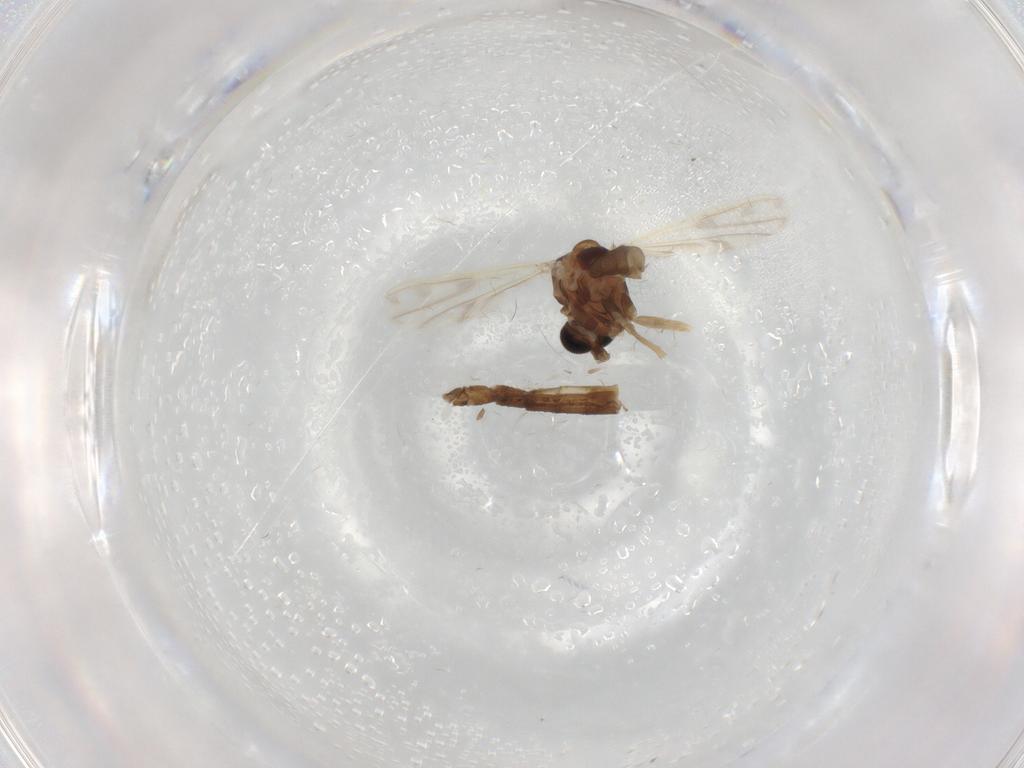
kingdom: Animalia
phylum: Arthropoda
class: Insecta
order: Diptera
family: Chironomidae
